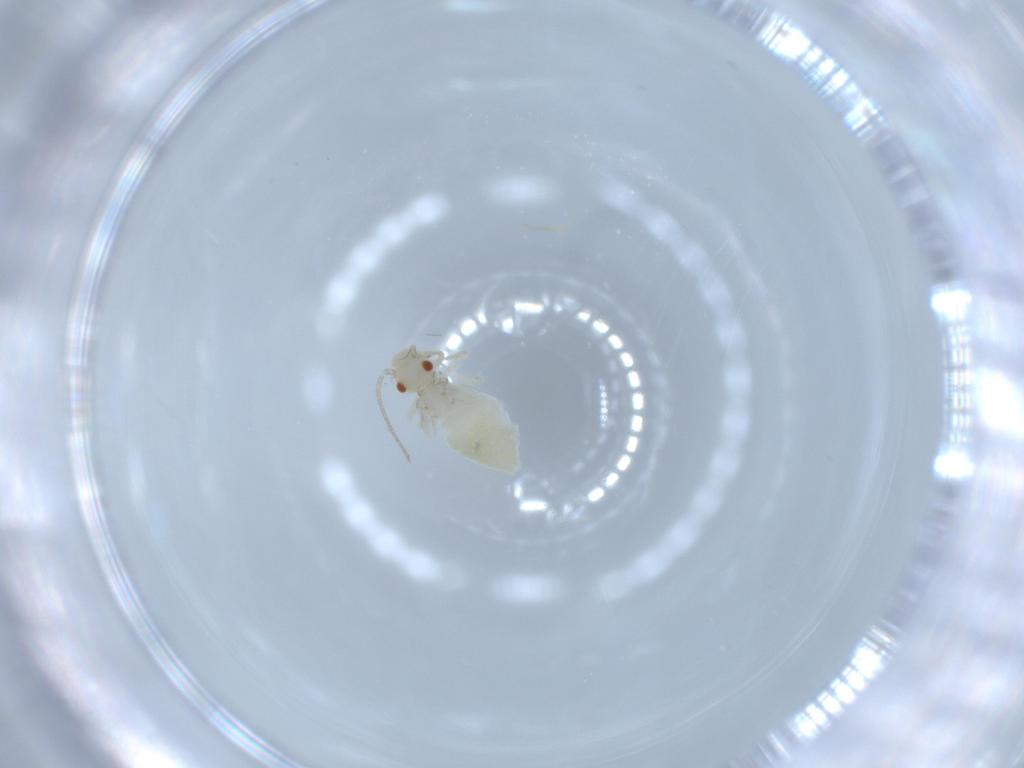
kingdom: Animalia
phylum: Arthropoda
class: Insecta
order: Psocodea
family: Caeciliusidae
